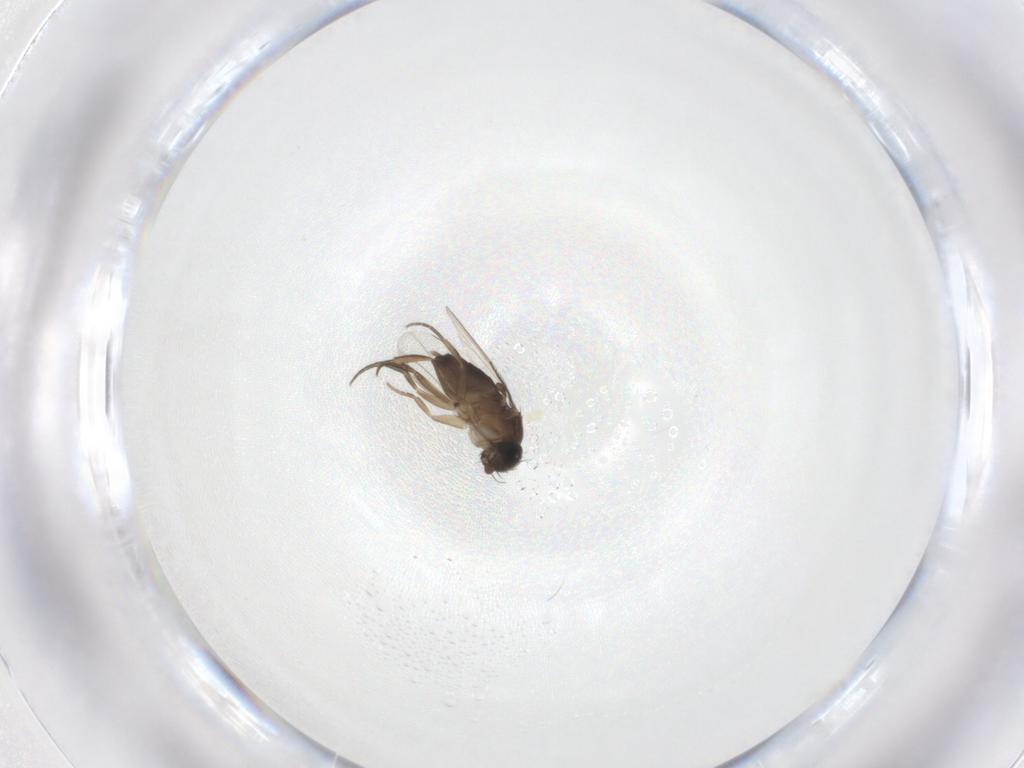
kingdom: Animalia
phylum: Arthropoda
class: Insecta
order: Diptera
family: Phoridae
